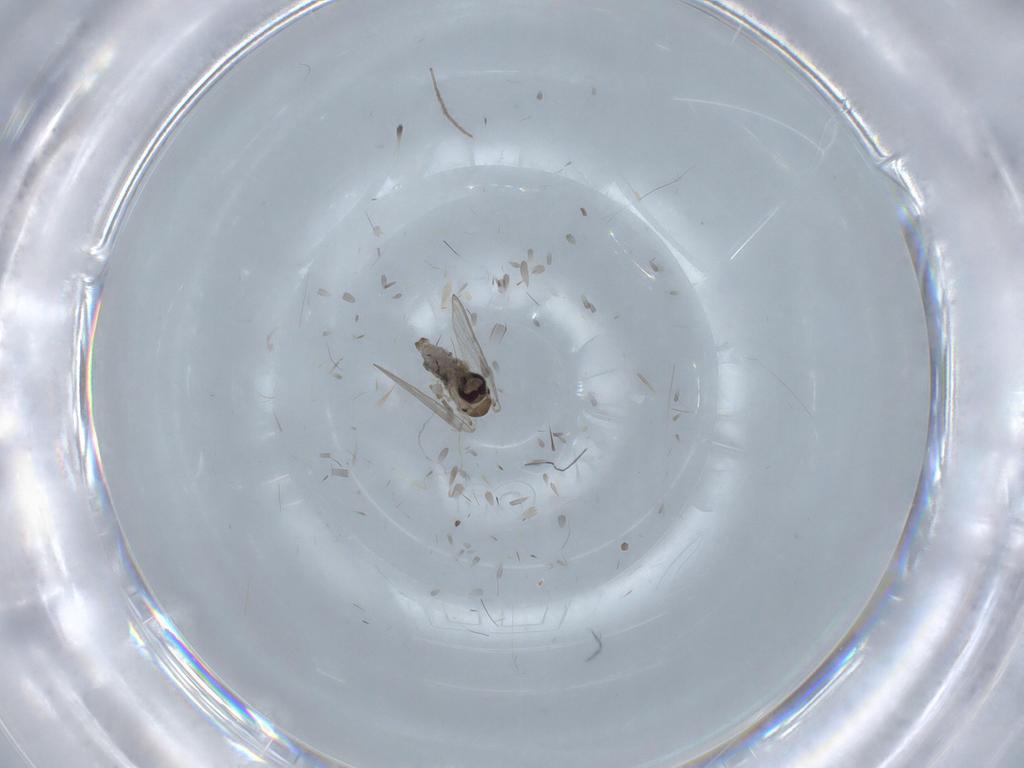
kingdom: Animalia
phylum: Arthropoda
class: Insecta
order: Diptera
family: Psychodidae
